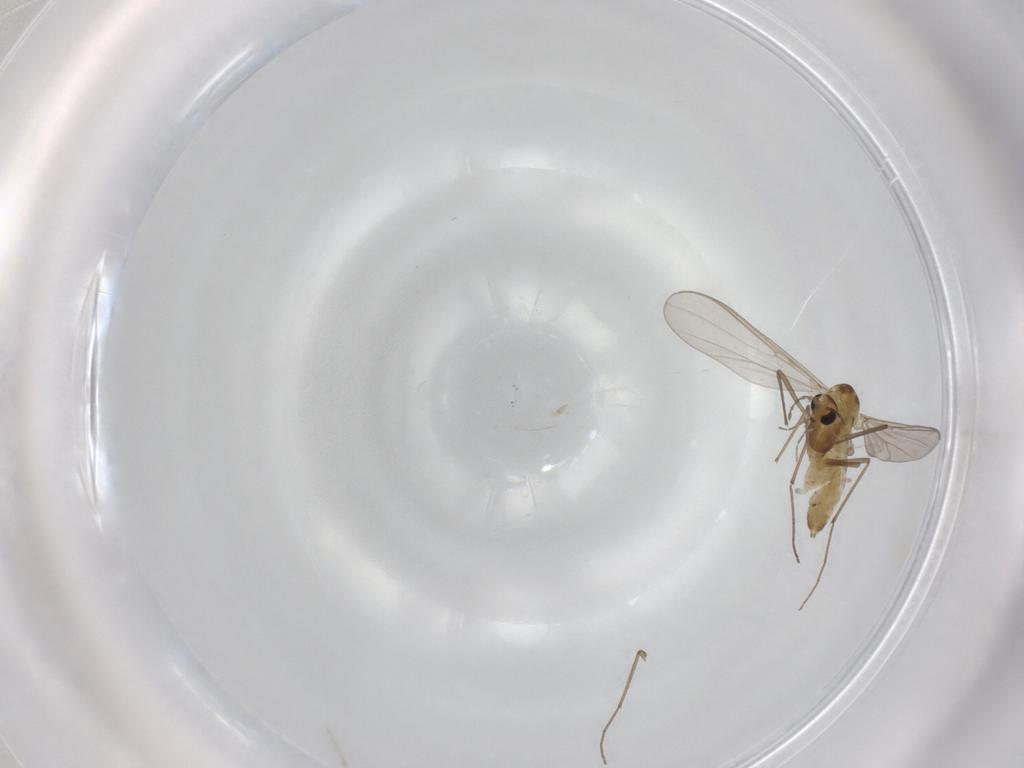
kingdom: Animalia
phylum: Arthropoda
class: Insecta
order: Diptera
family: Chironomidae
